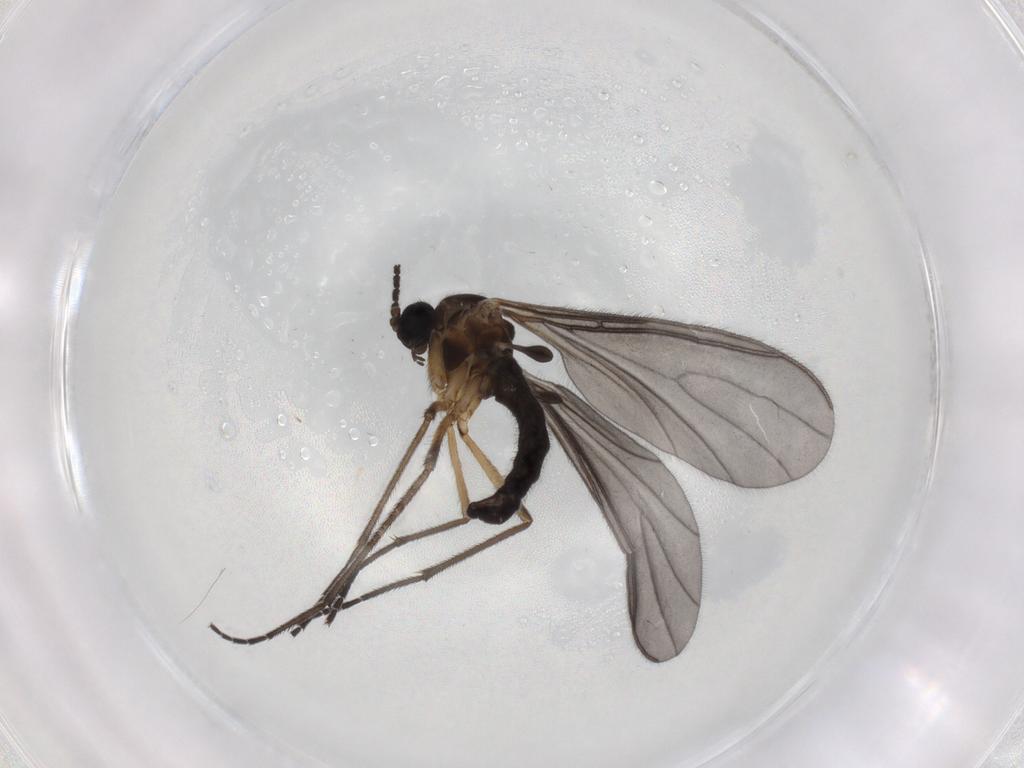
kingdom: Animalia
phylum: Arthropoda
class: Insecta
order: Diptera
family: Sciaridae
